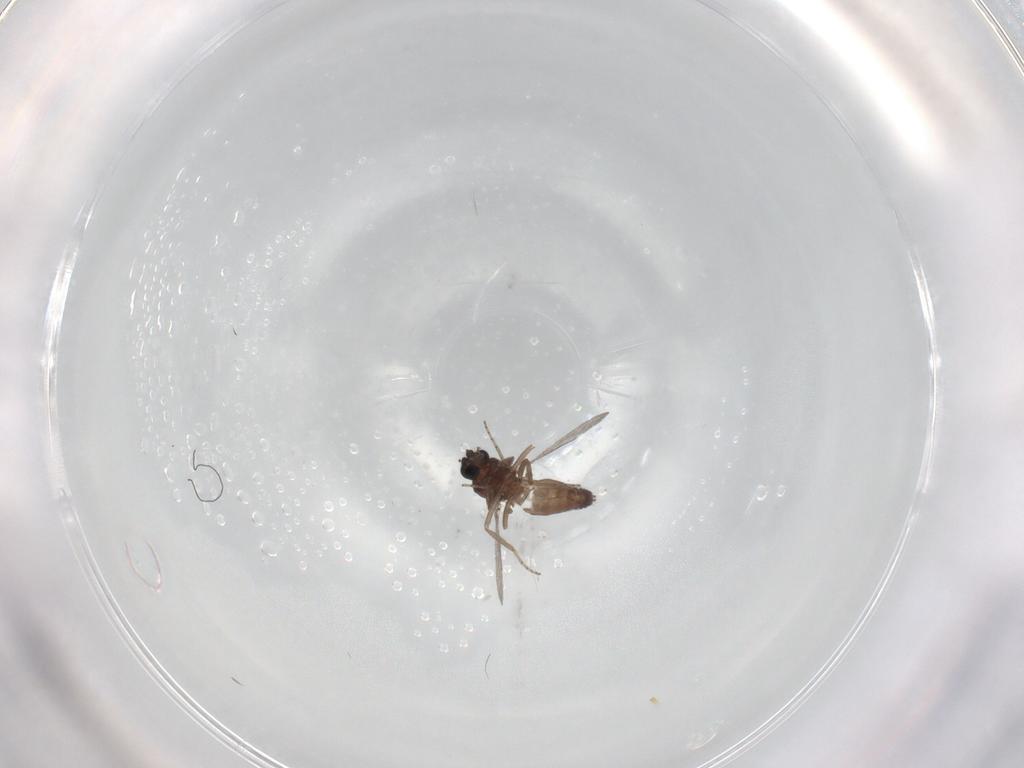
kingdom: Animalia
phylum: Arthropoda
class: Insecta
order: Diptera
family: Ceratopogonidae
